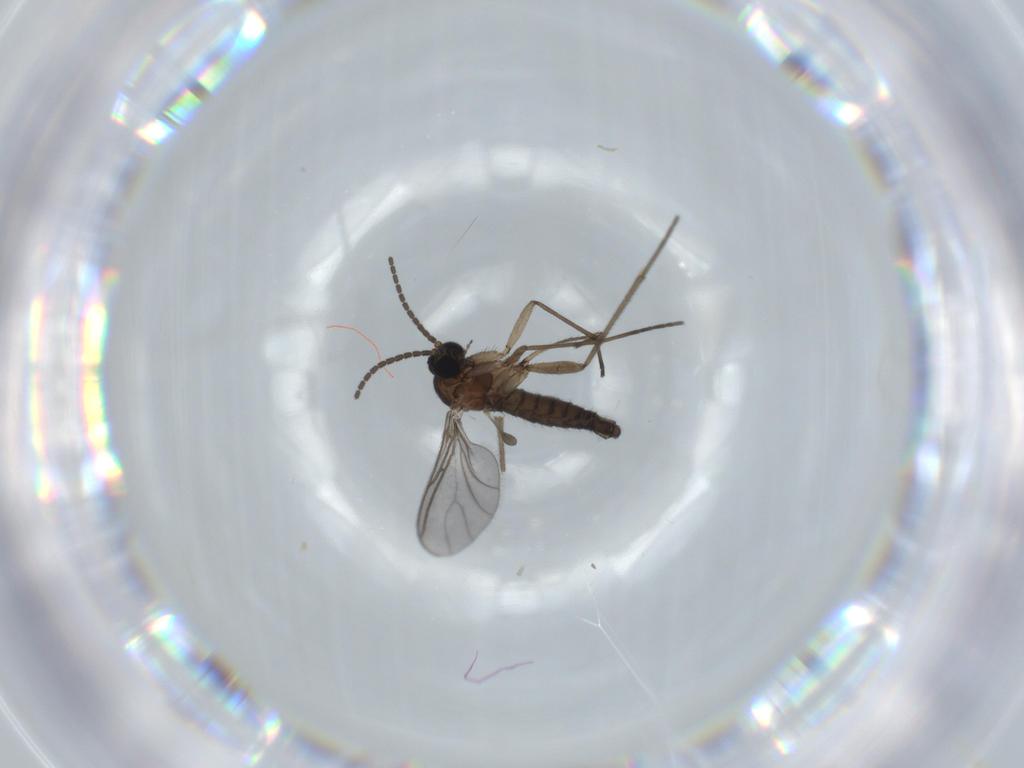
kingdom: Animalia
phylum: Arthropoda
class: Insecta
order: Diptera
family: Sciaridae
